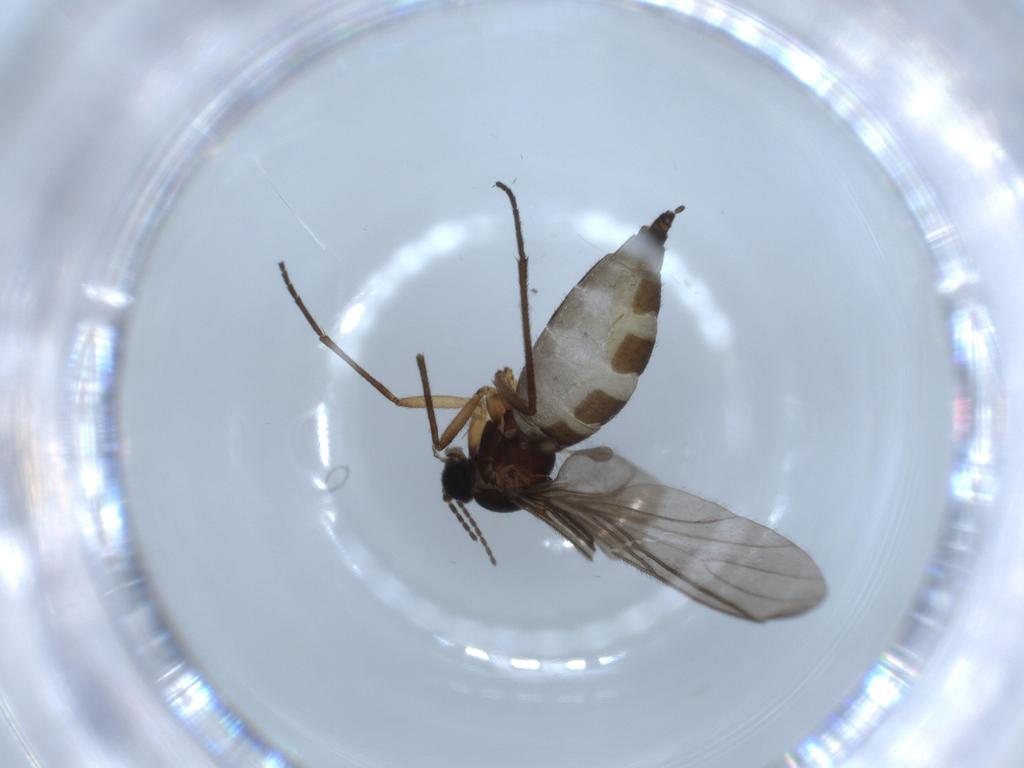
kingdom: Animalia
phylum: Arthropoda
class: Insecta
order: Diptera
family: Sciaridae
